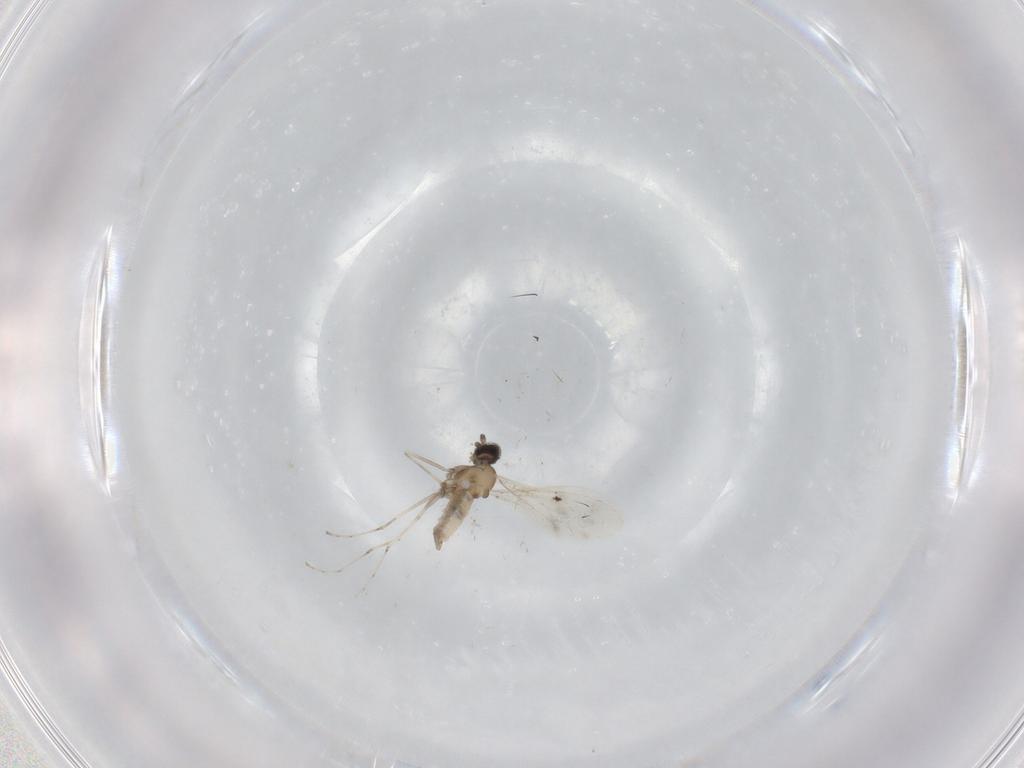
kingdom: Animalia
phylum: Arthropoda
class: Insecta
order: Diptera
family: Cecidomyiidae
